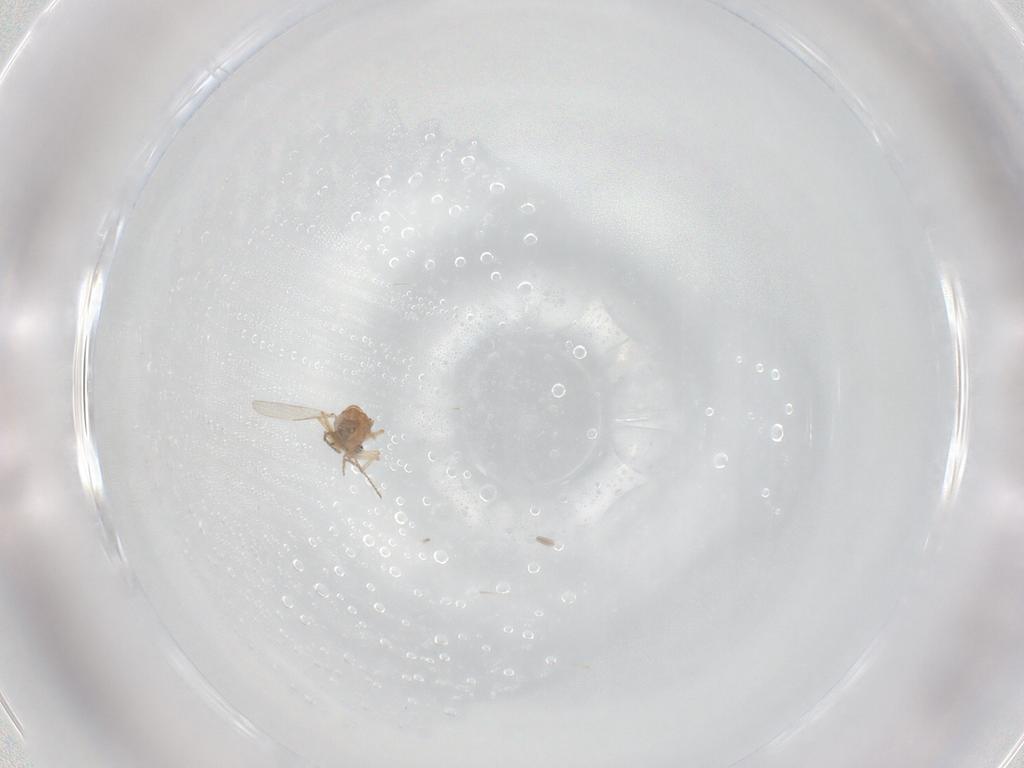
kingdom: Animalia
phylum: Arthropoda
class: Insecta
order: Diptera
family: Ceratopogonidae
